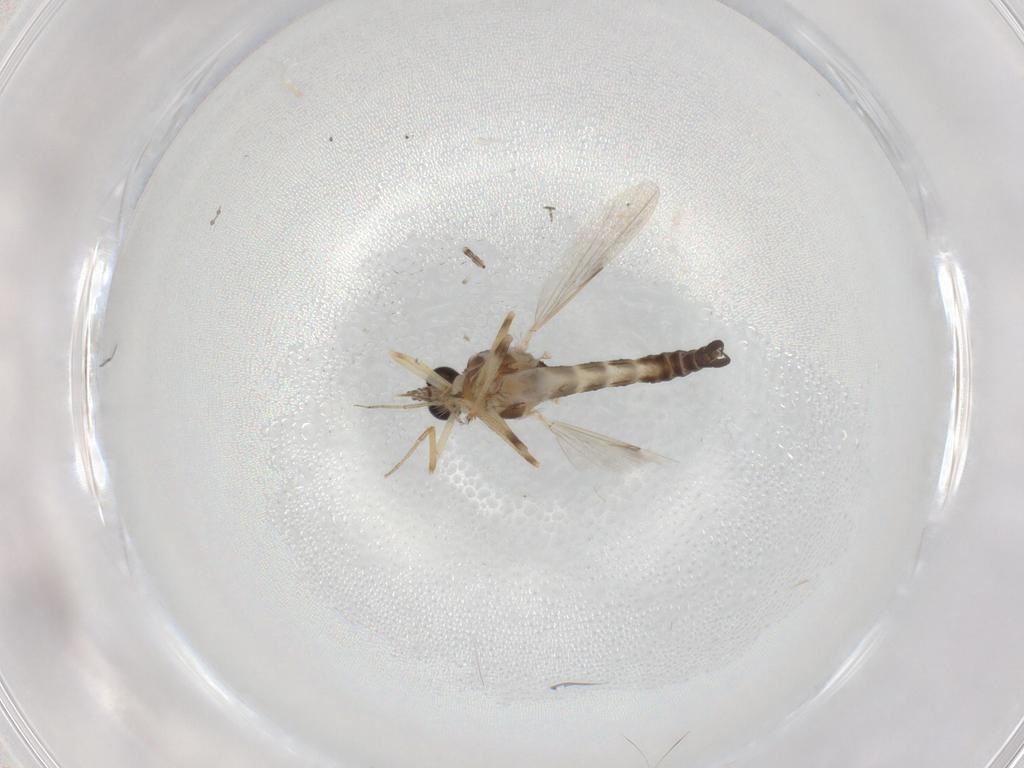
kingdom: Animalia
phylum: Arthropoda
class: Insecta
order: Diptera
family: Ceratopogonidae
